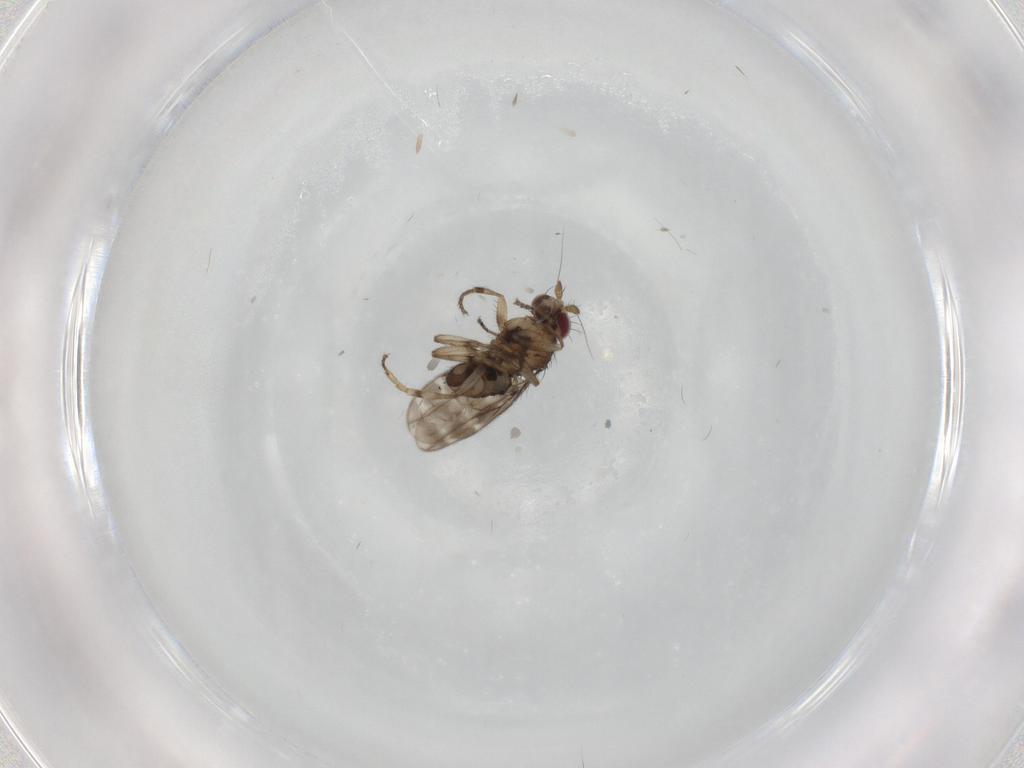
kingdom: Animalia
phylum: Arthropoda
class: Insecta
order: Diptera
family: Sphaeroceridae
